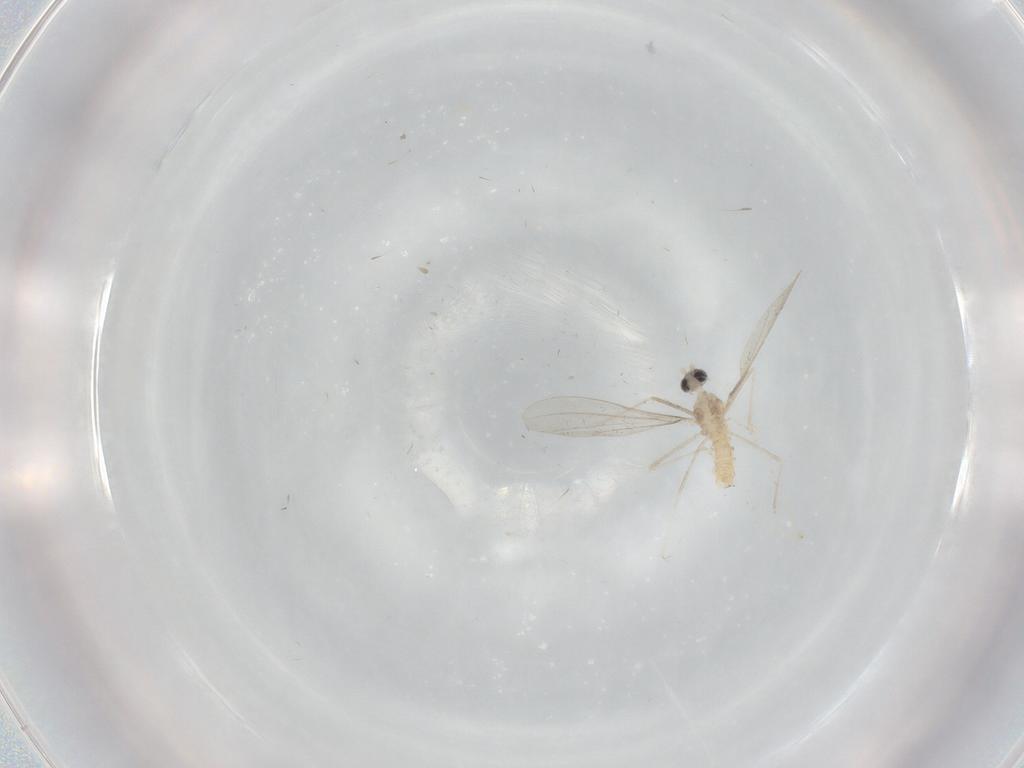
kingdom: Animalia
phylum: Arthropoda
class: Insecta
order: Diptera
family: Cecidomyiidae
